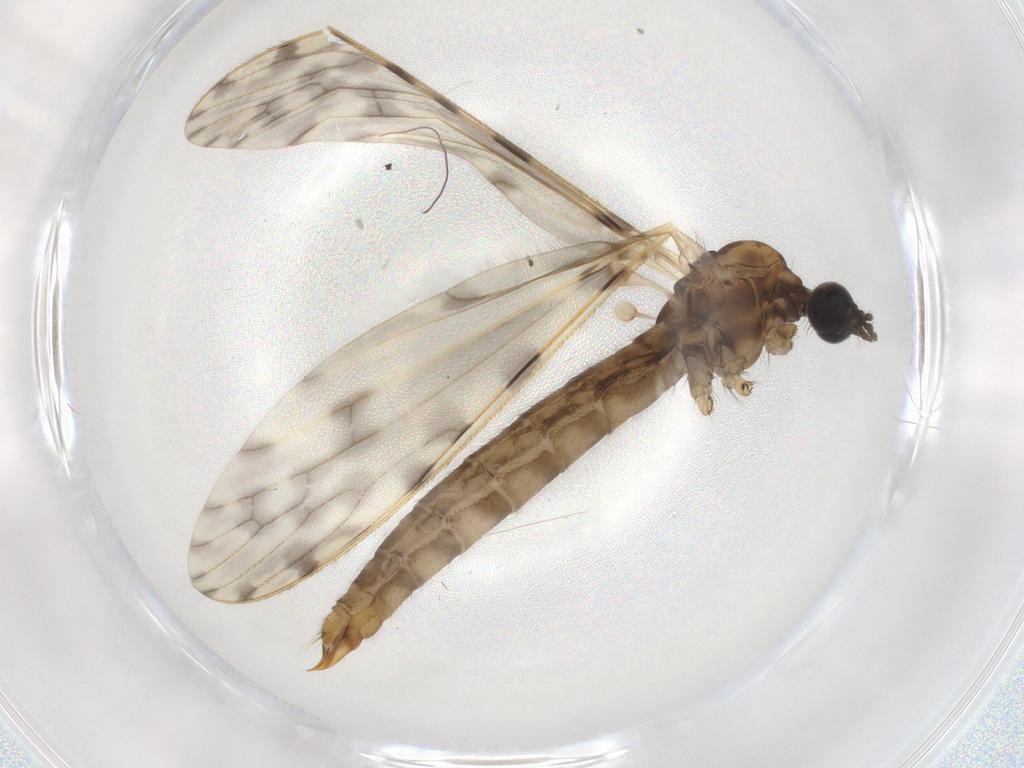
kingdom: Animalia
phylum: Arthropoda
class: Insecta
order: Diptera
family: Psychodidae
